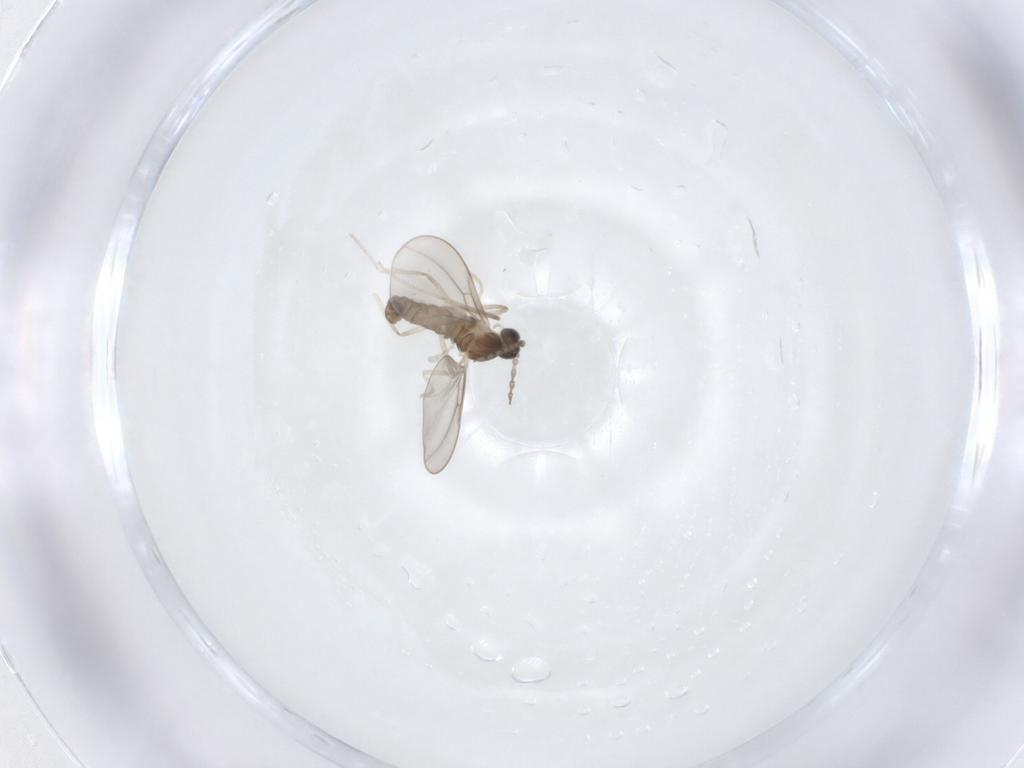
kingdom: Animalia
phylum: Arthropoda
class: Insecta
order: Diptera
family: Cecidomyiidae
